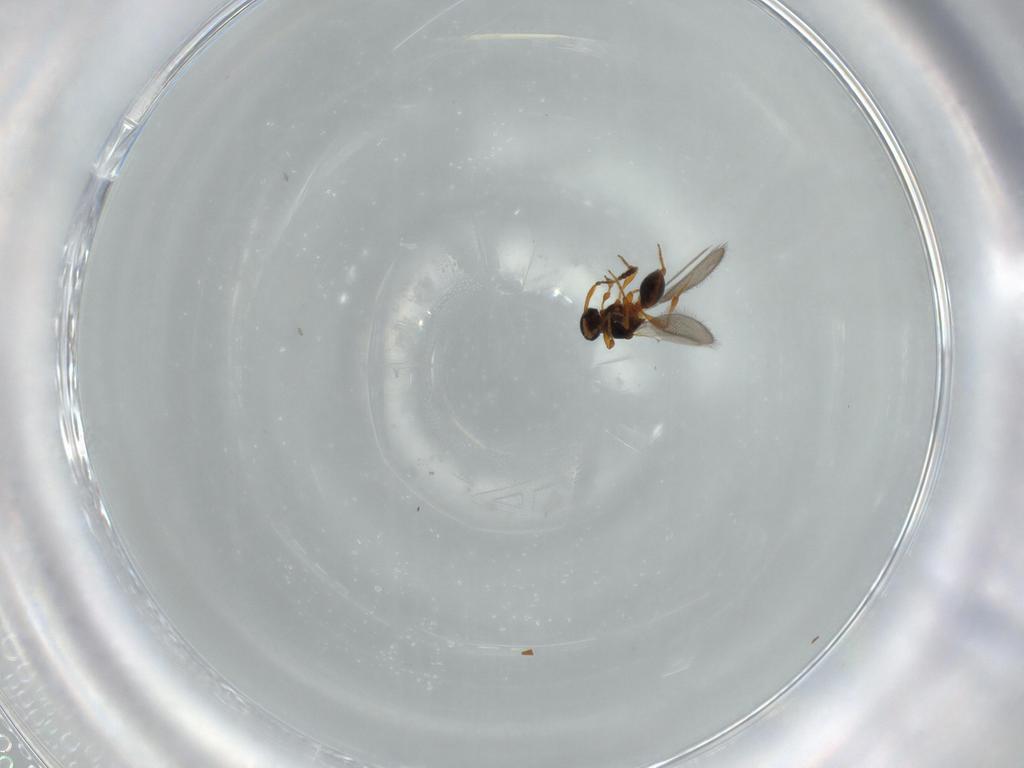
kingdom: Animalia
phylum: Arthropoda
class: Insecta
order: Hymenoptera
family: Platygastridae
